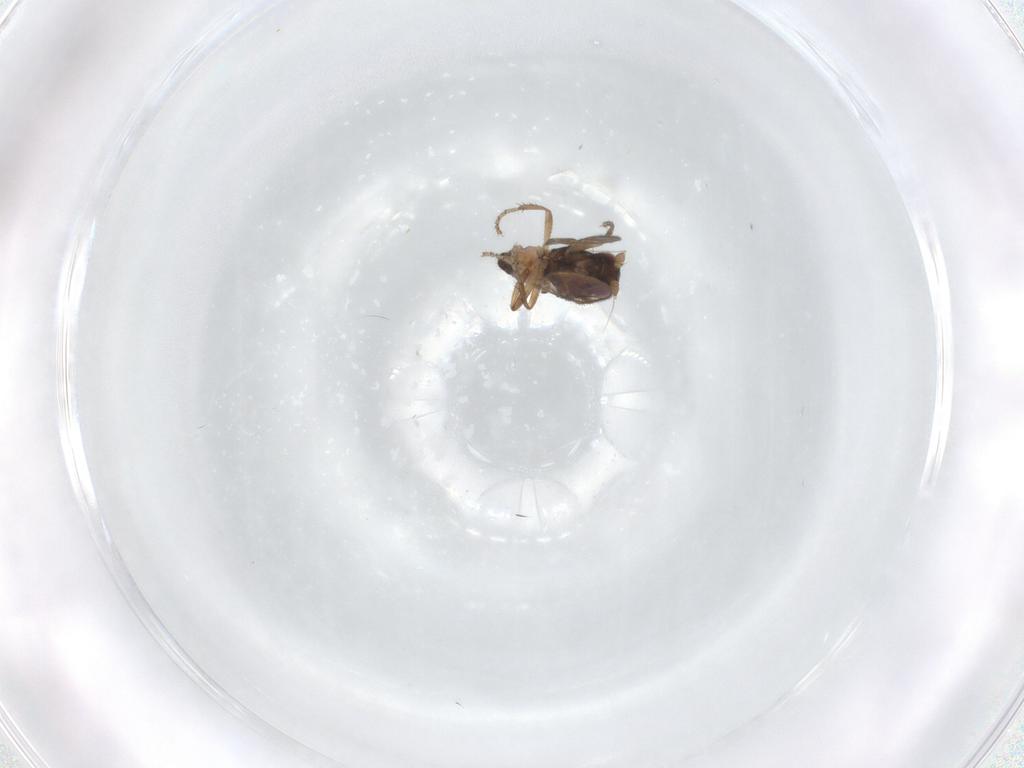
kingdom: Animalia
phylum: Arthropoda
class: Insecta
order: Diptera
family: Sphaeroceridae
